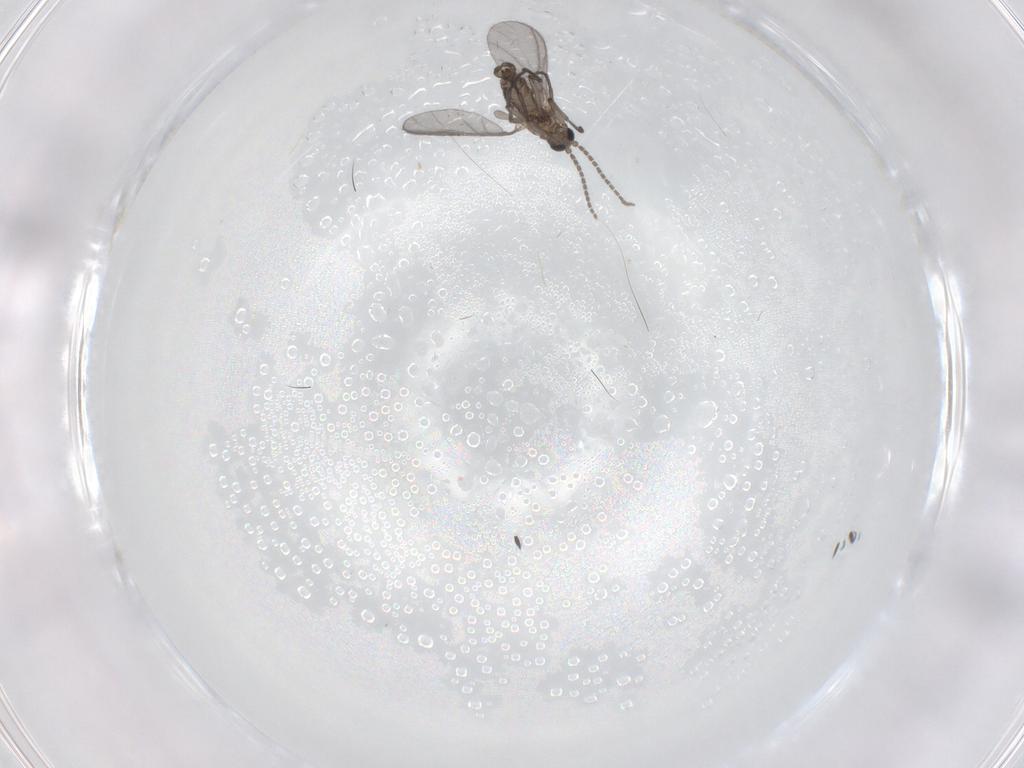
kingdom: Animalia
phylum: Arthropoda
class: Insecta
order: Diptera
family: Sciaridae
